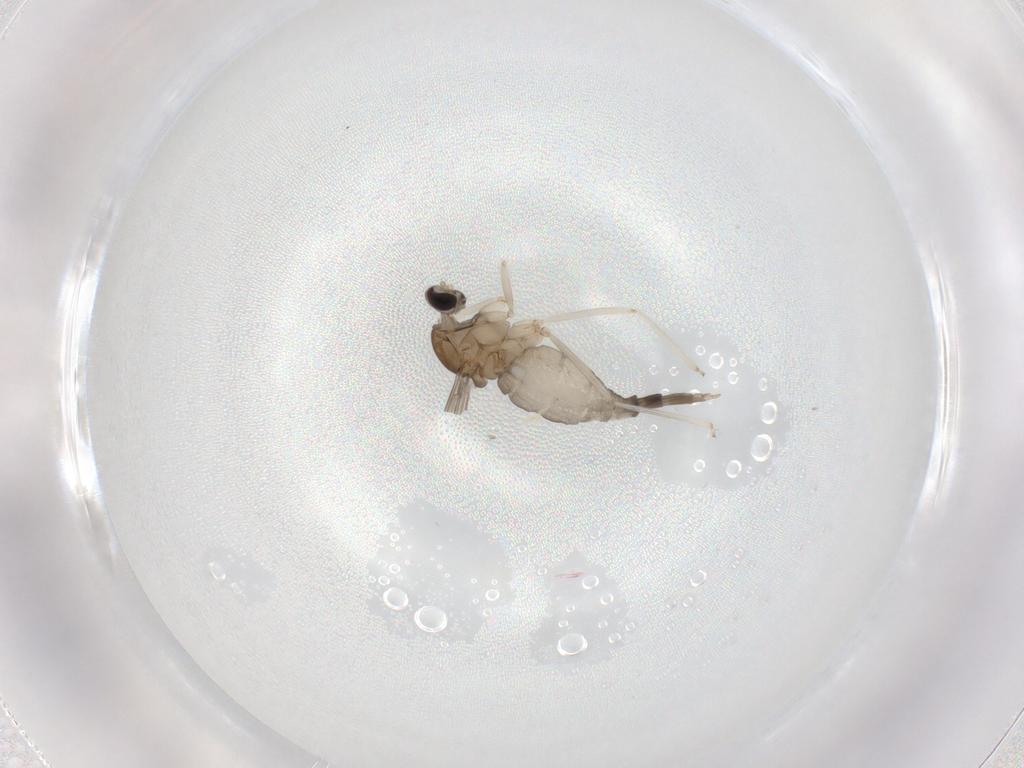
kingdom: Animalia
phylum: Arthropoda
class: Insecta
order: Diptera
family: Cecidomyiidae
